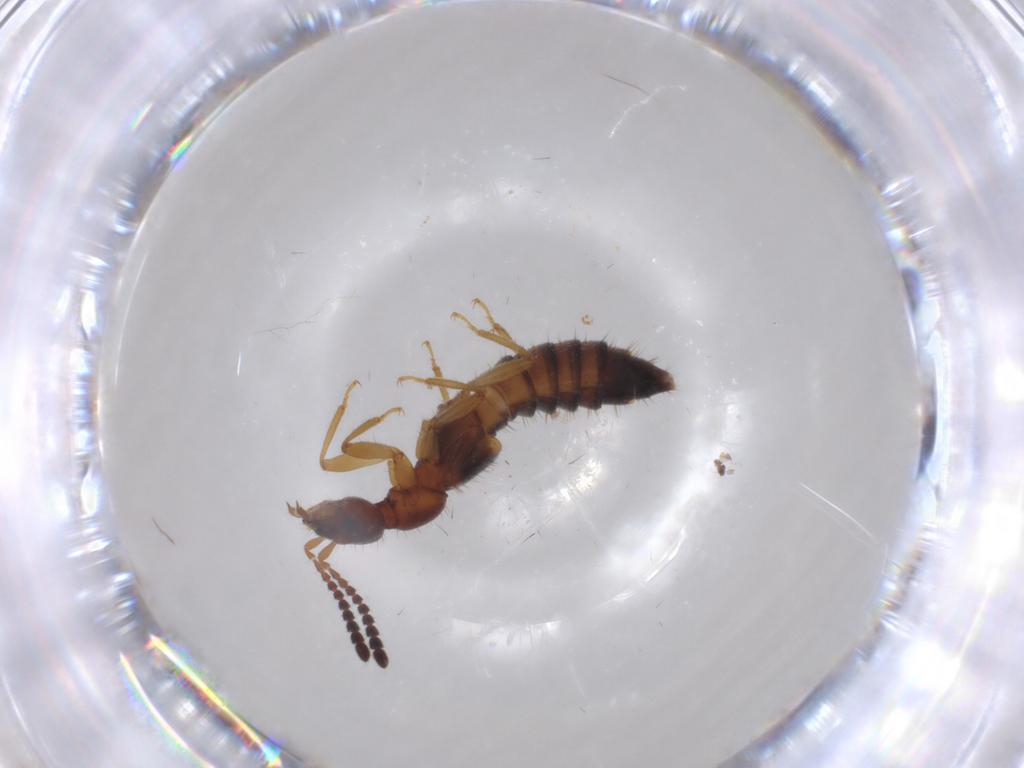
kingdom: Animalia
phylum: Arthropoda
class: Insecta
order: Coleoptera
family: Staphylinidae
